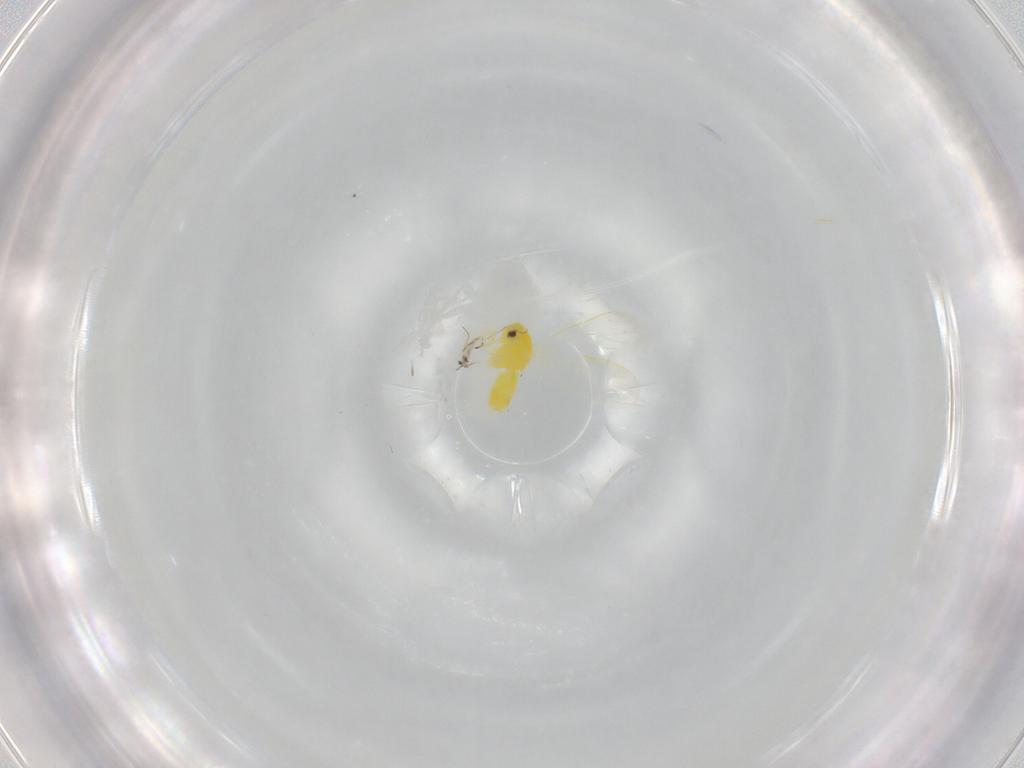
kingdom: Animalia
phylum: Arthropoda
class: Insecta
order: Hemiptera
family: Aleyrodidae
